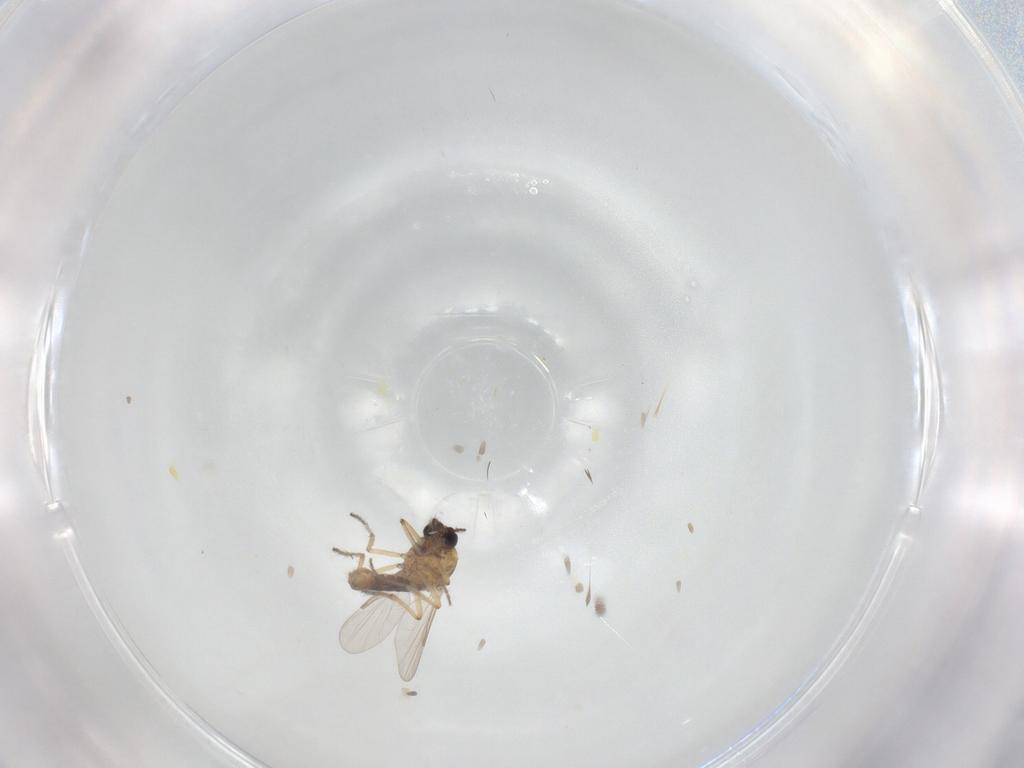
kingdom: Animalia
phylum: Arthropoda
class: Insecta
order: Diptera
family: Ceratopogonidae
